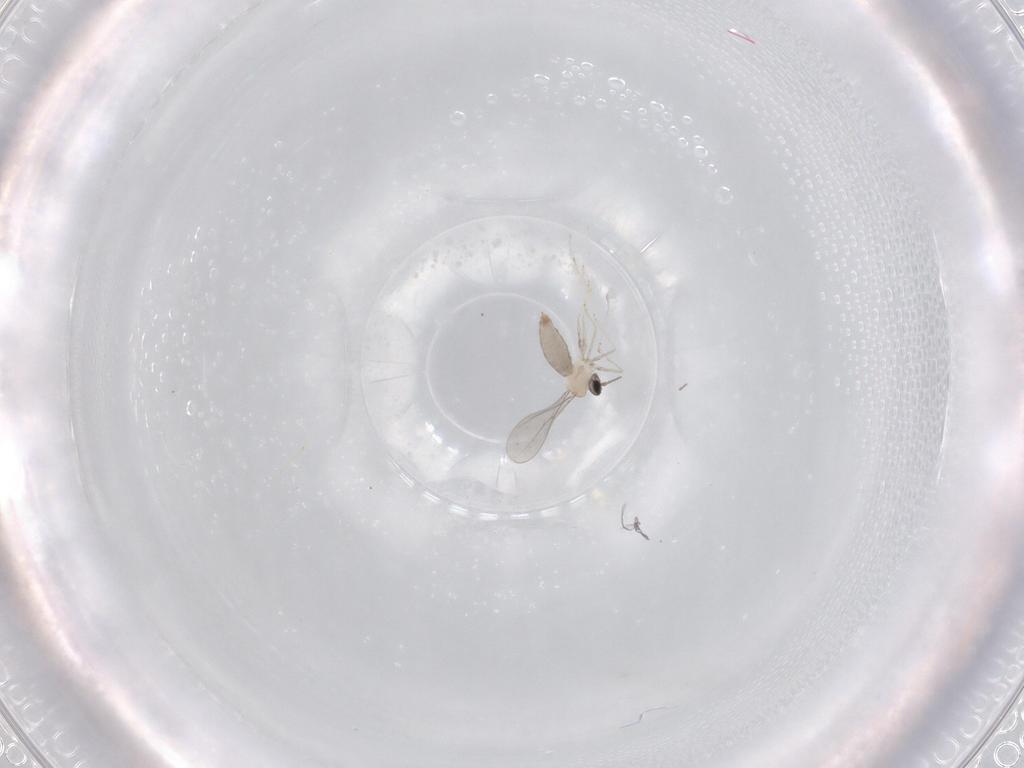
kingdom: Animalia
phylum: Arthropoda
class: Insecta
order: Diptera
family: Cecidomyiidae
